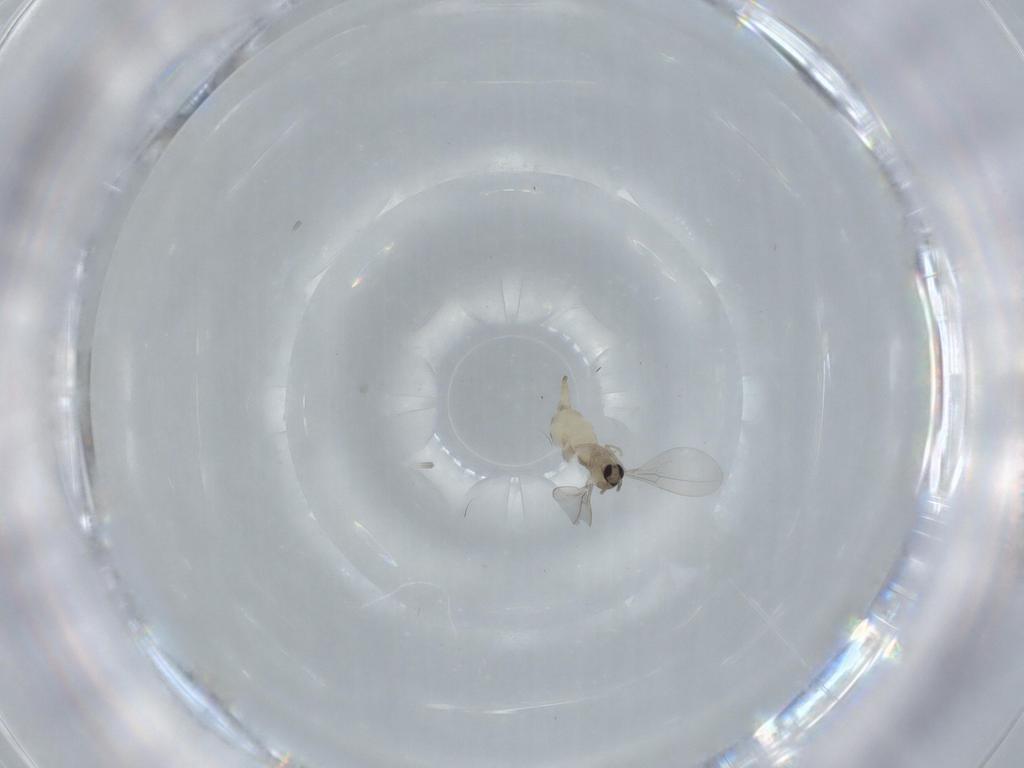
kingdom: Animalia
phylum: Arthropoda
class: Insecta
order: Diptera
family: Cecidomyiidae
